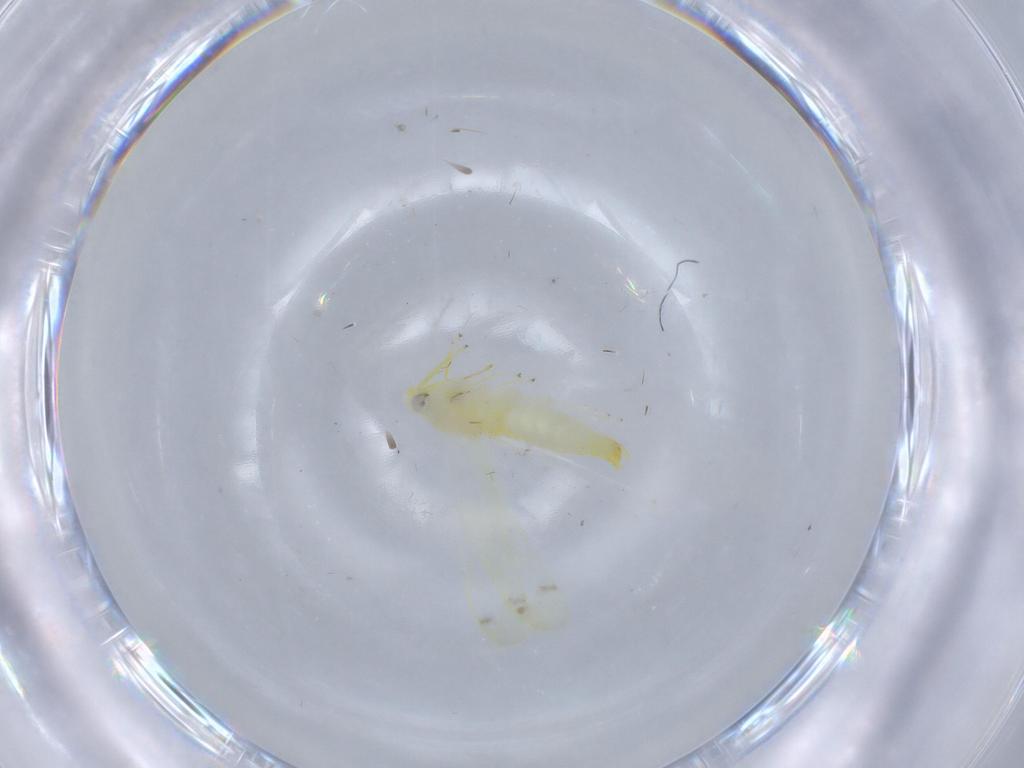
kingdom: Animalia
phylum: Arthropoda
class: Insecta
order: Hemiptera
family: Cicadellidae
